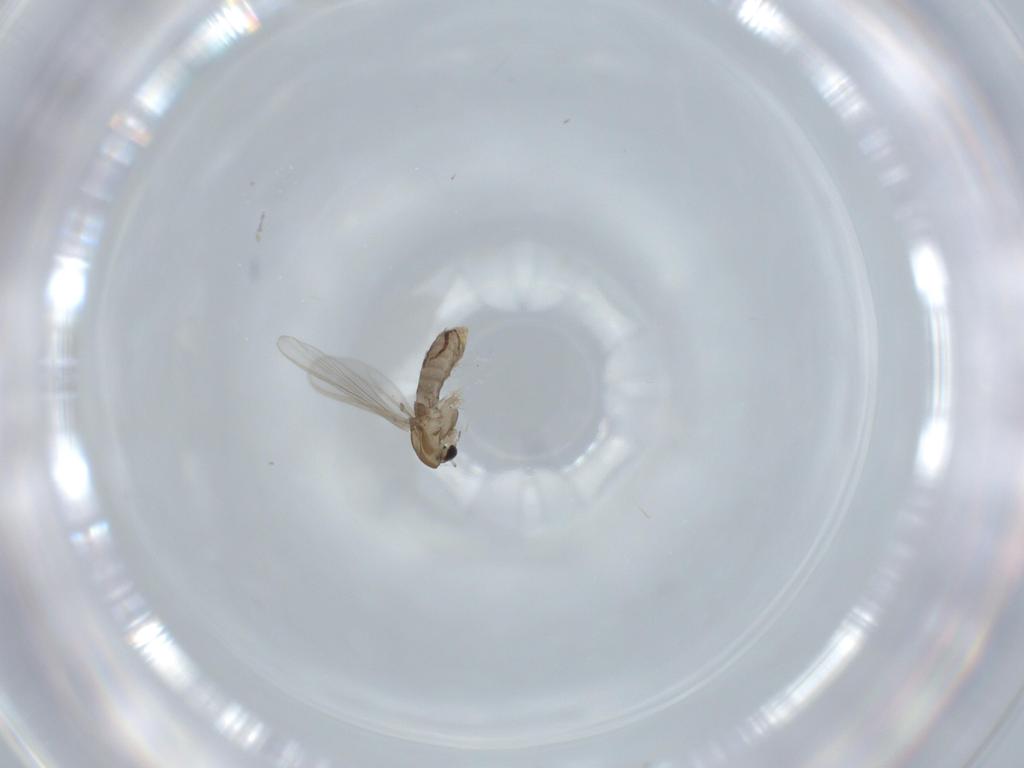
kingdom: Animalia
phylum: Arthropoda
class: Insecta
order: Diptera
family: Chironomidae
